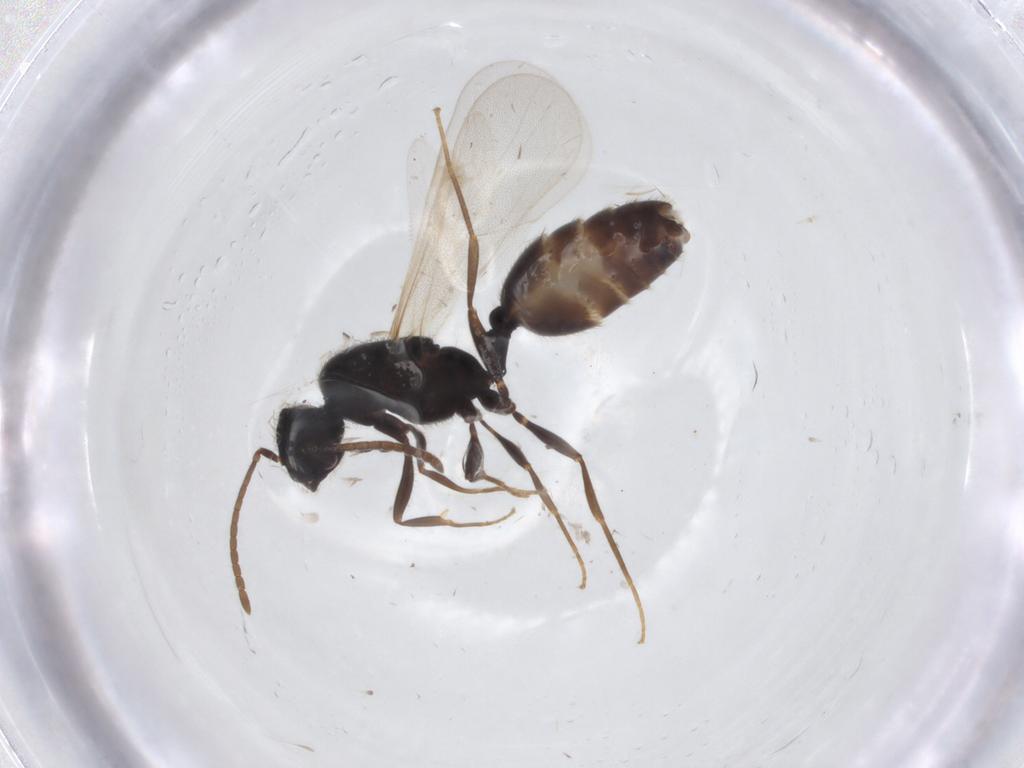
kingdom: Animalia
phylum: Arthropoda
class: Insecta
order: Hymenoptera
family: Formicidae
